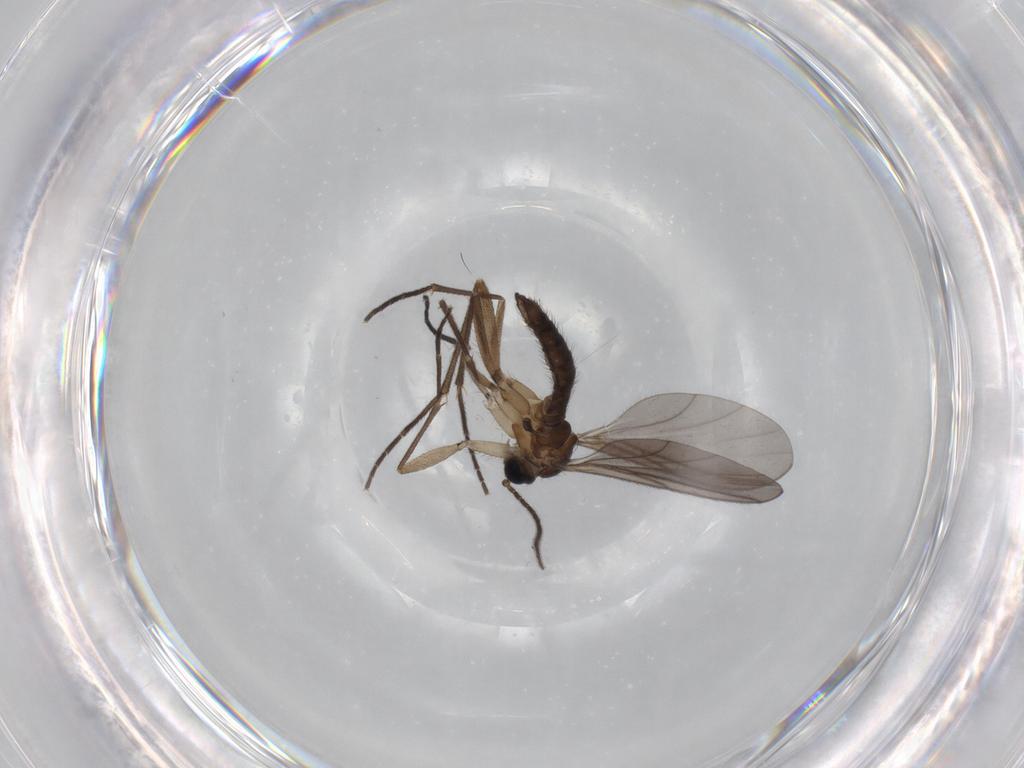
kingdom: Animalia
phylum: Arthropoda
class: Insecta
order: Diptera
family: Sciaridae
